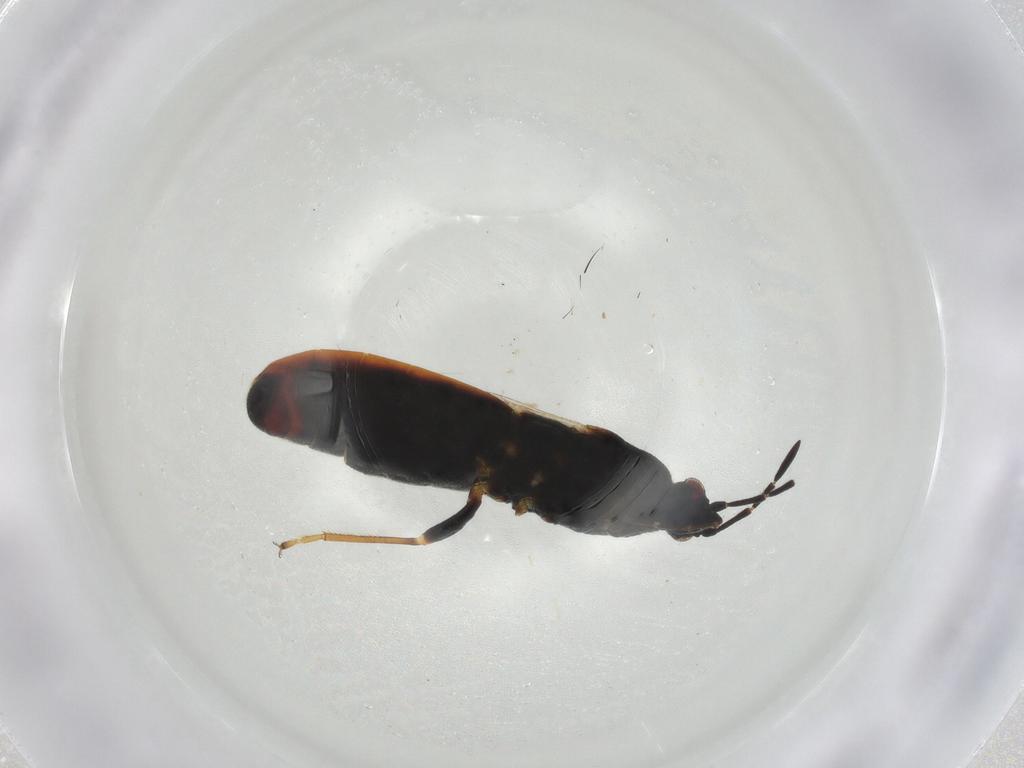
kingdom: Animalia
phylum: Arthropoda
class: Insecta
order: Hemiptera
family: Blissidae
